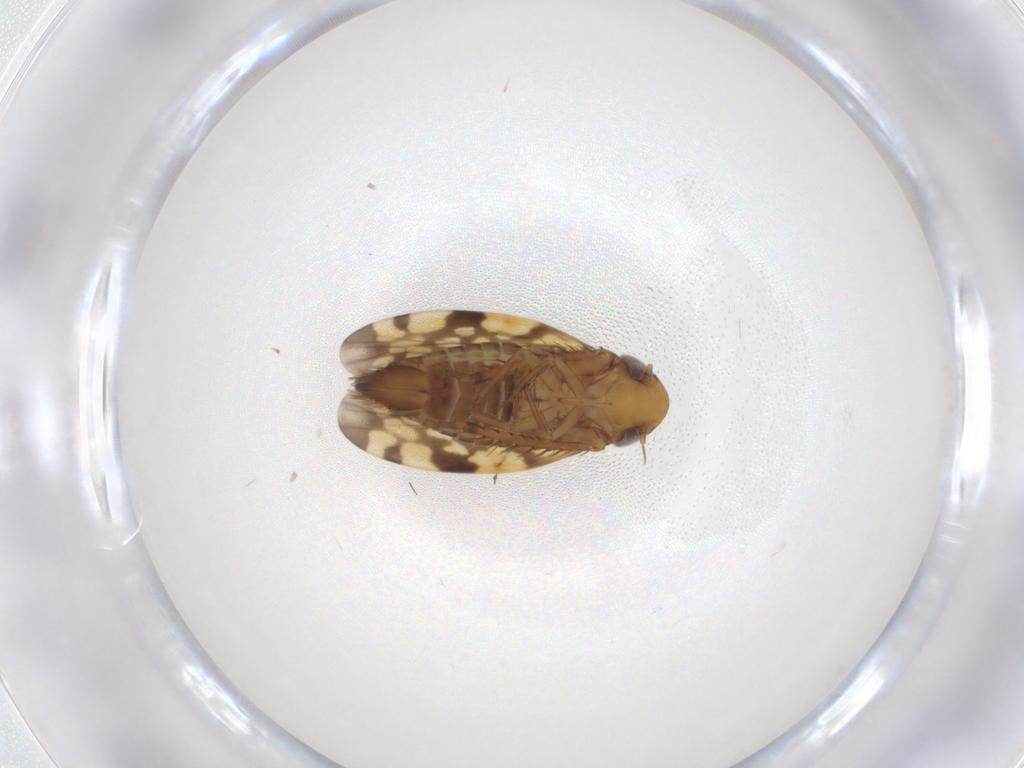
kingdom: Animalia
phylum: Arthropoda
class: Insecta
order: Hemiptera
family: Cicadellidae
